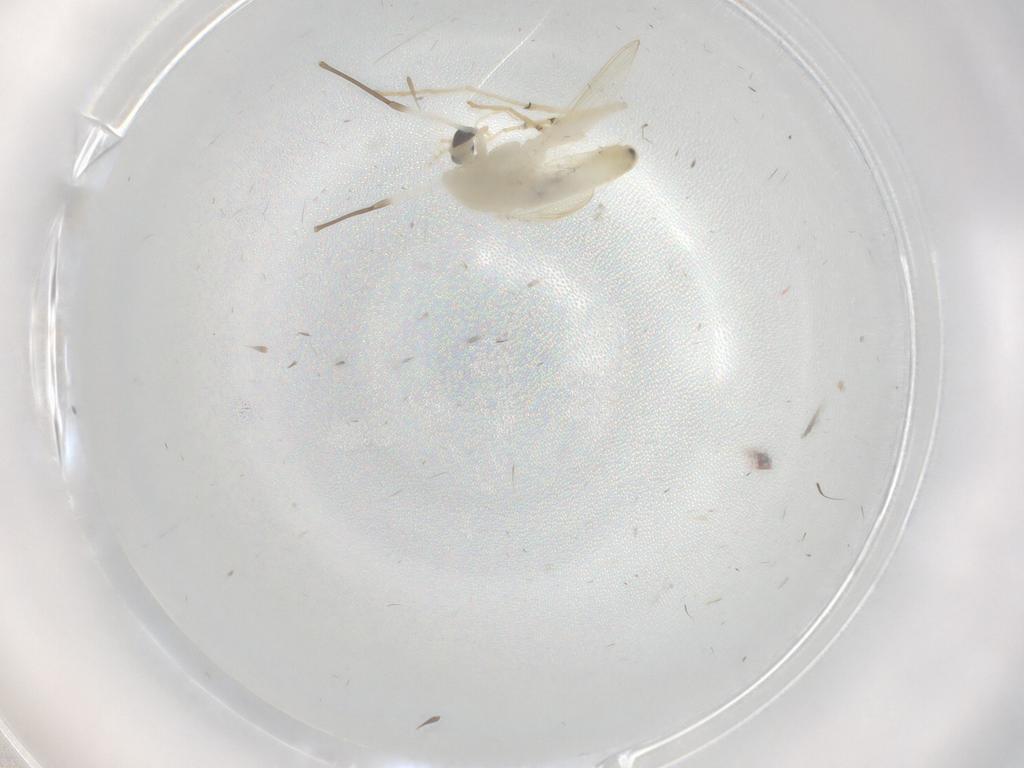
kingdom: Animalia
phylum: Arthropoda
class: Insecta
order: Diptera
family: Chironomidae
